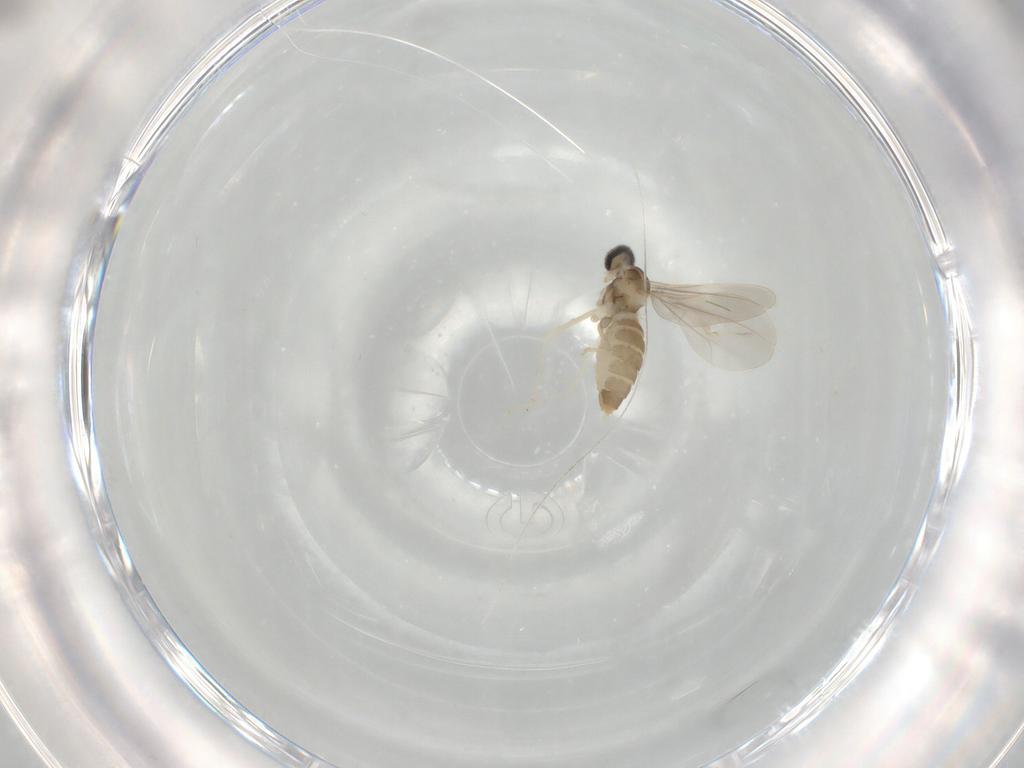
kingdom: Animalia
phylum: Arthropoda
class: Insecta
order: Diptera
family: Cecidomyiidae
